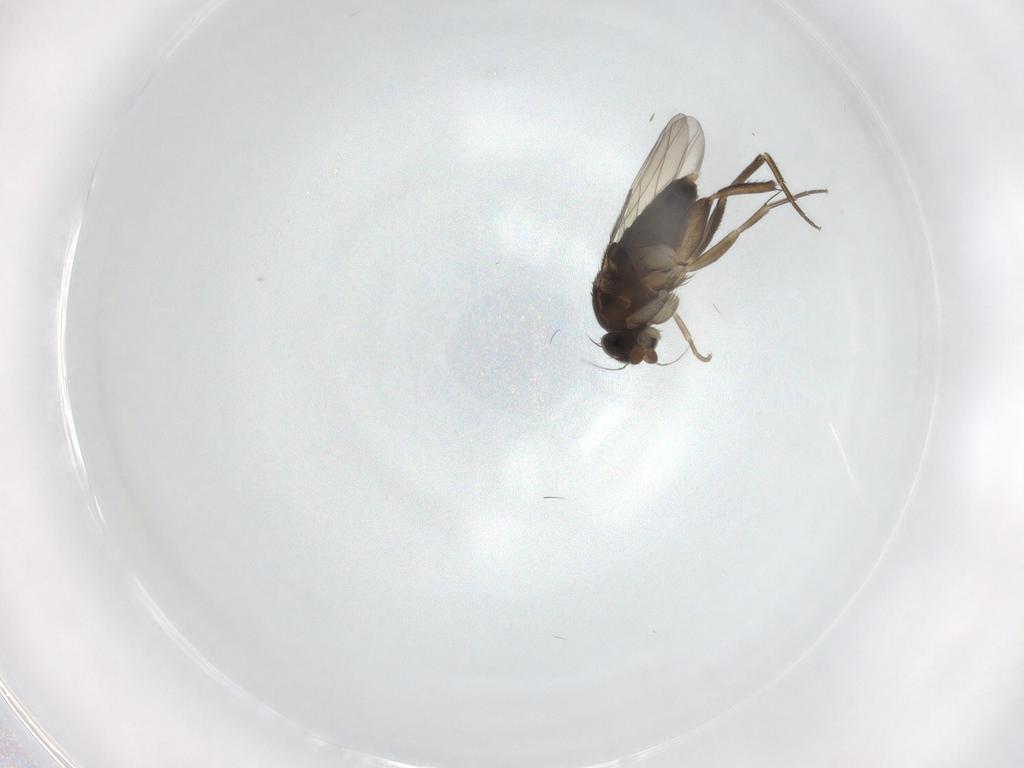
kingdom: Animalia
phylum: Arthropoda
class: Insecta
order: Diptera
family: Phoridae
